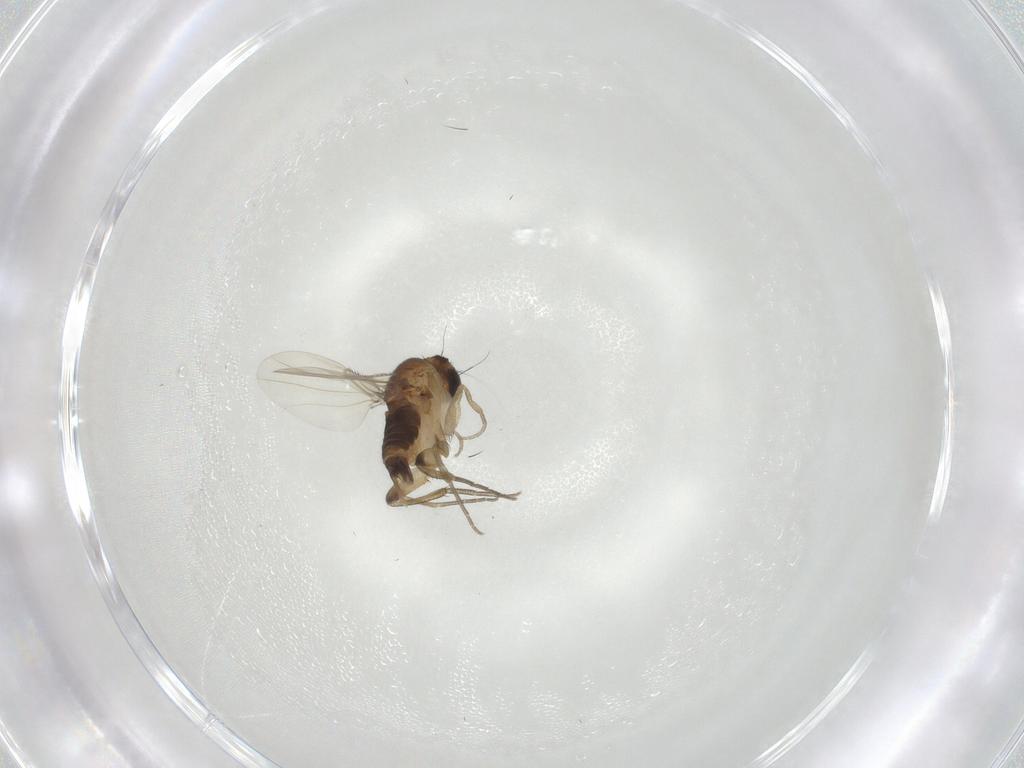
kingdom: Animalia
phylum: Arthropoda
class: Insecta
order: Diptera
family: Phoridae
